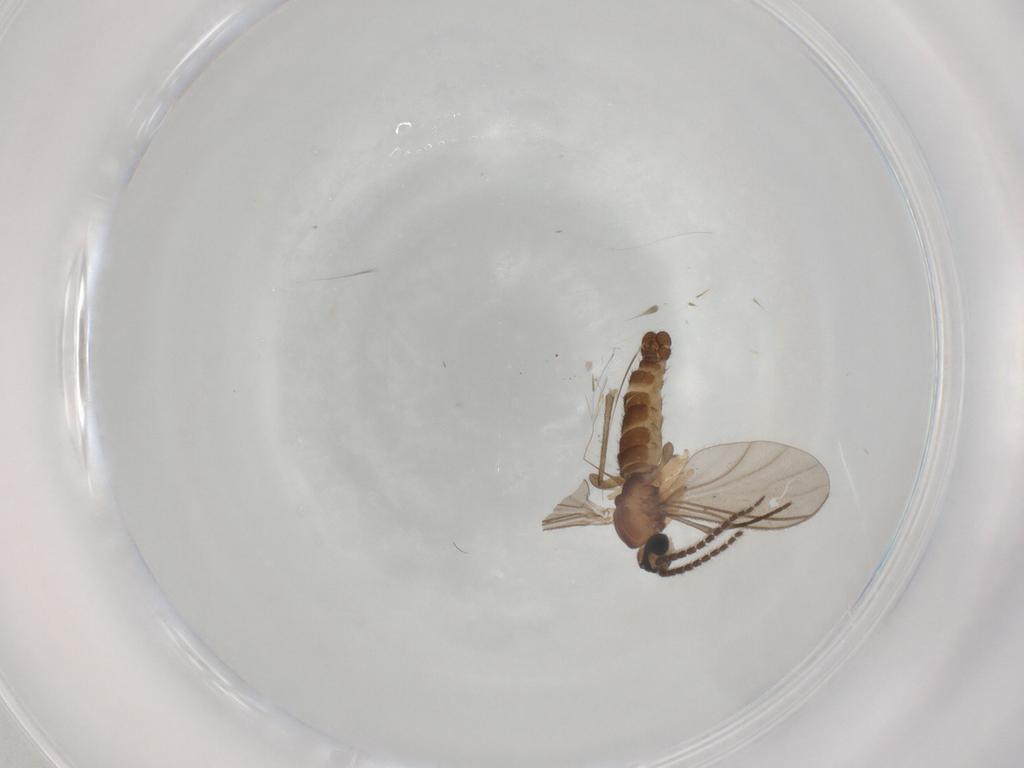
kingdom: Animalia
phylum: Arthropoda
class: Insecta
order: Diptera
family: Sciaridae
